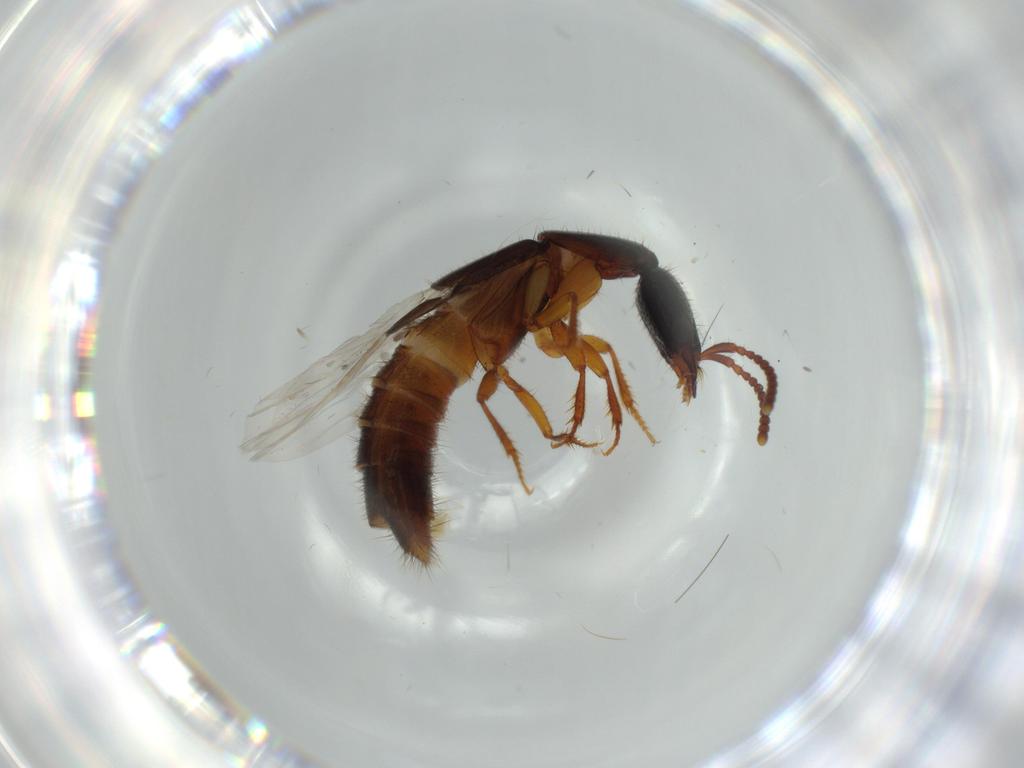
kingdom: Animalia
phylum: Arthropoda
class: Insecta
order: Coleoptera
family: Staphylinidae
